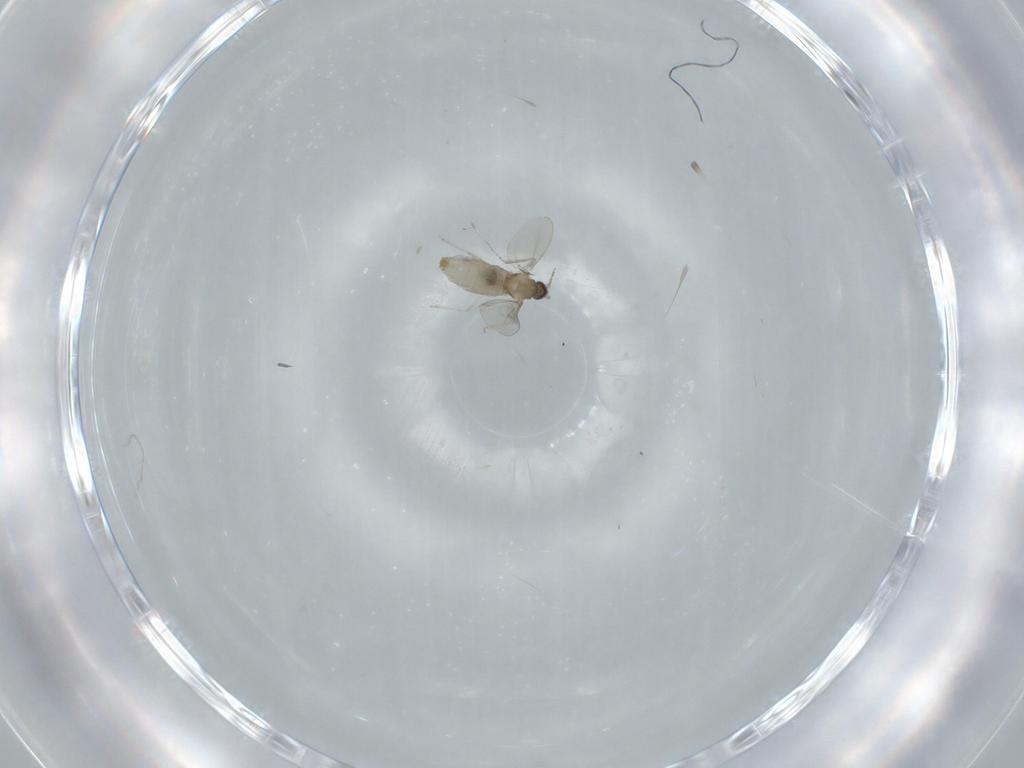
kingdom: Animalia
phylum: Arthropoda
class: Insecta
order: Diptera
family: Cecidomyiidae
